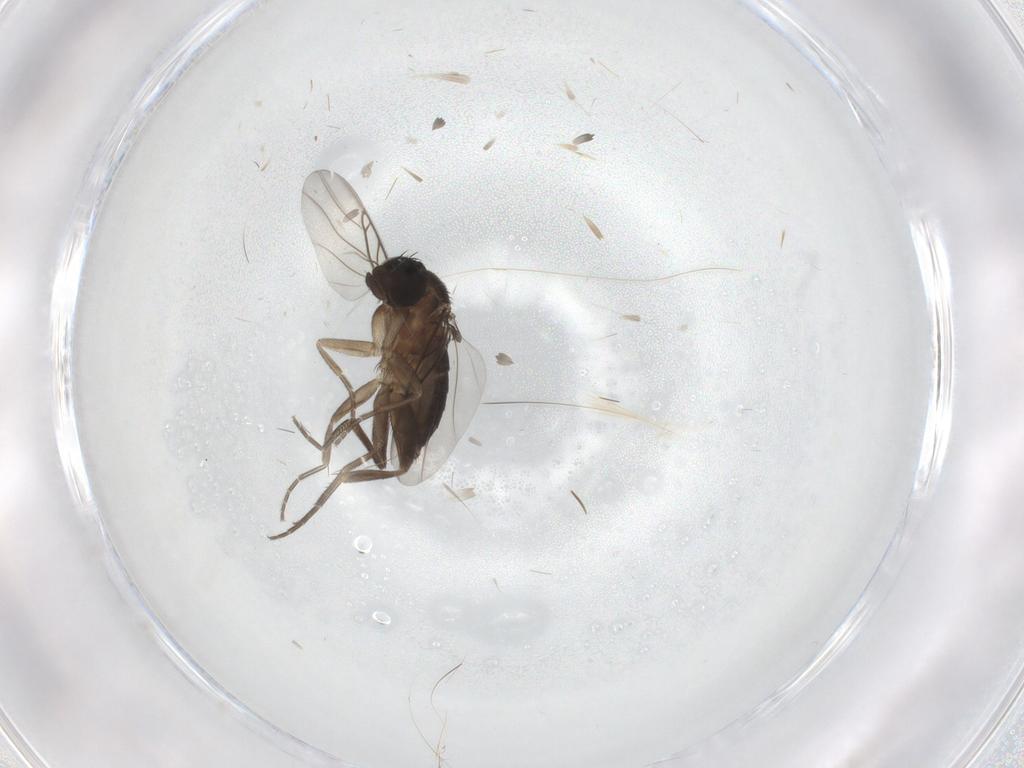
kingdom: Animalia
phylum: Arthropoda
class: Insecta
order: Diptera
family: Phoridae
